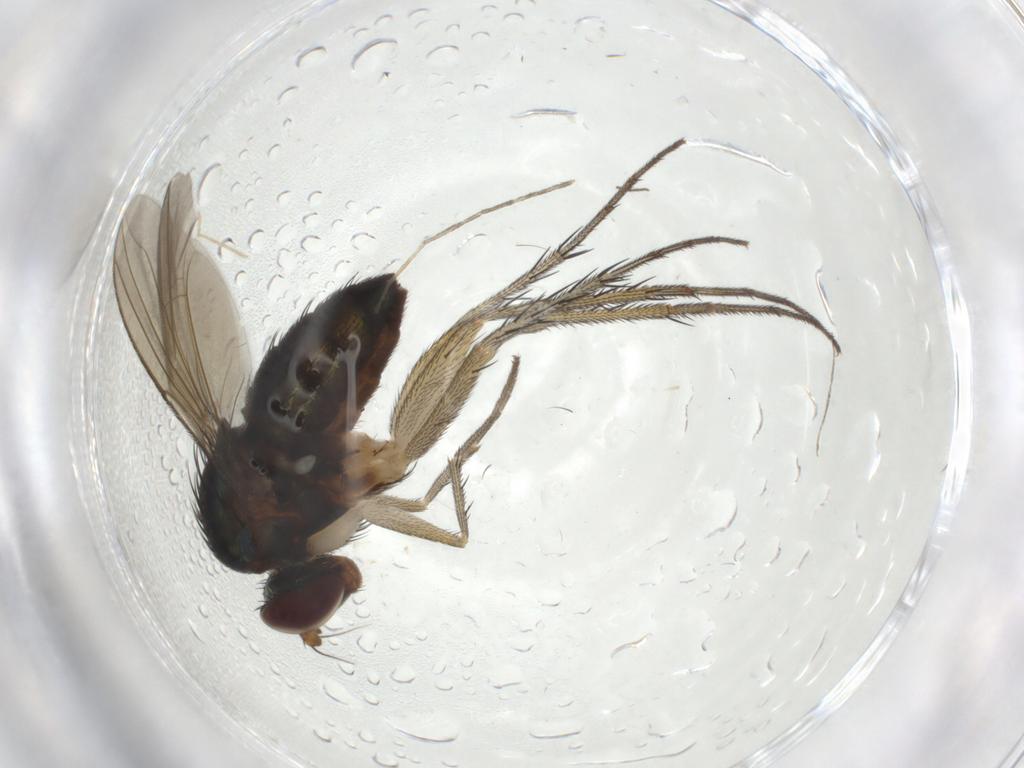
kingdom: Animalia
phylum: Arthropoda
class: Insecta
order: Diptera
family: Dolichopodidae
